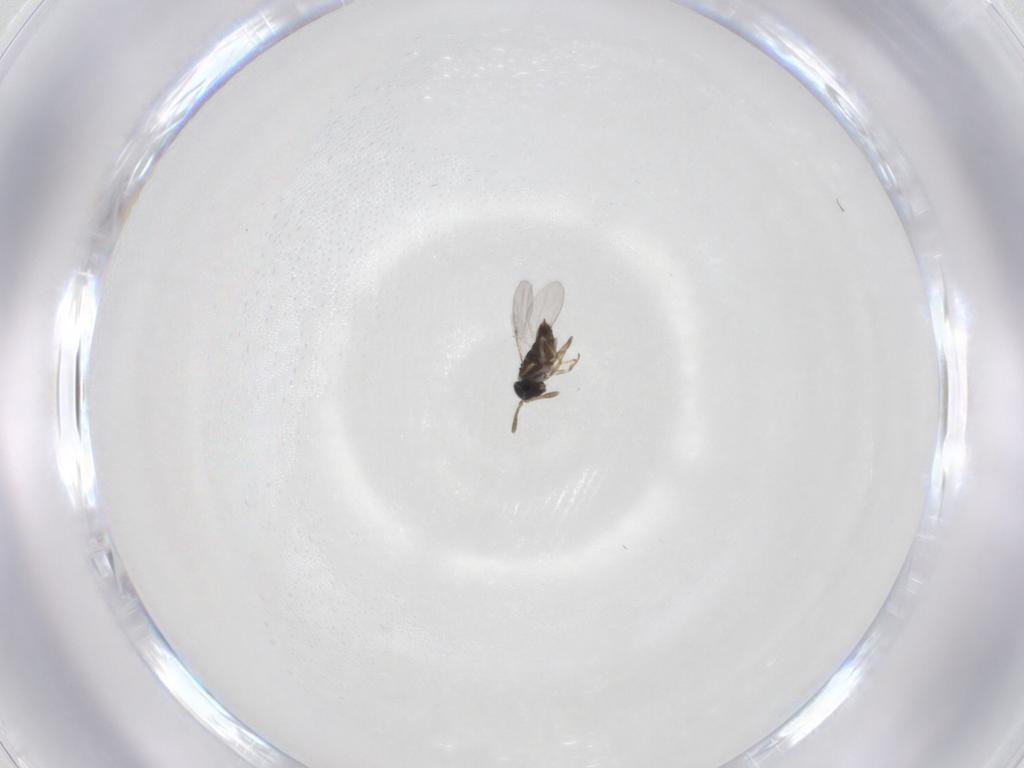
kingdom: Animalia
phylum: Arthropoda
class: Insecta
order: Hymenoptera
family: Encyrtidae
